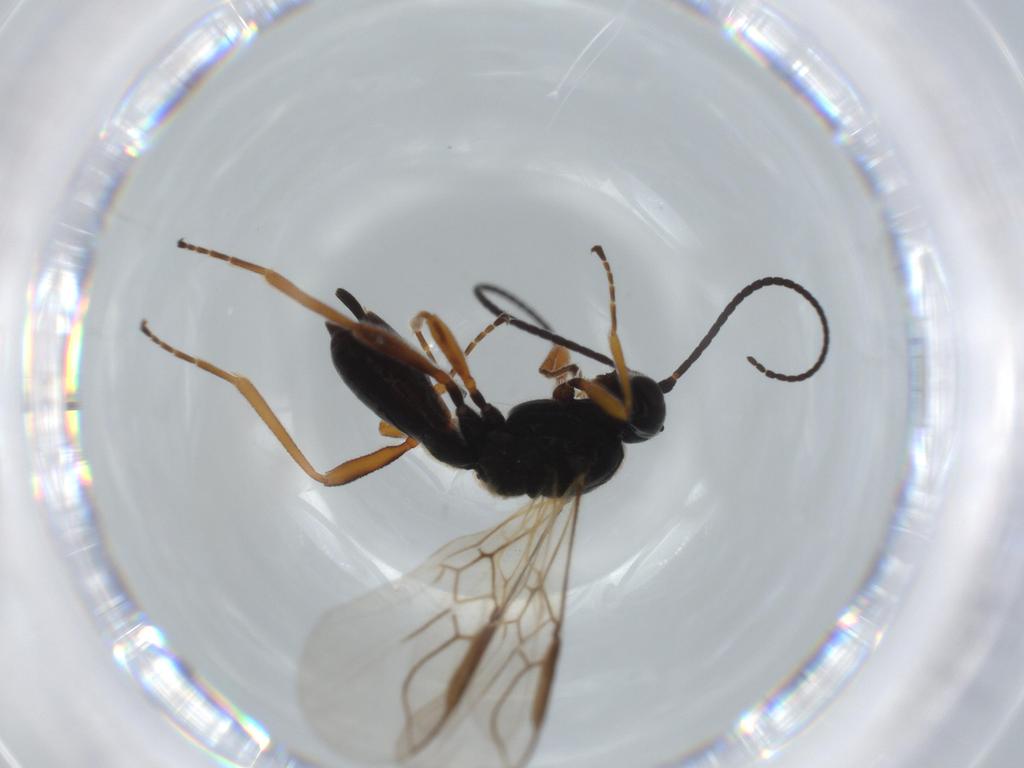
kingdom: Animalia
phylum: Arthropoda
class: Insecta
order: Hymenoptera
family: Braconidae
